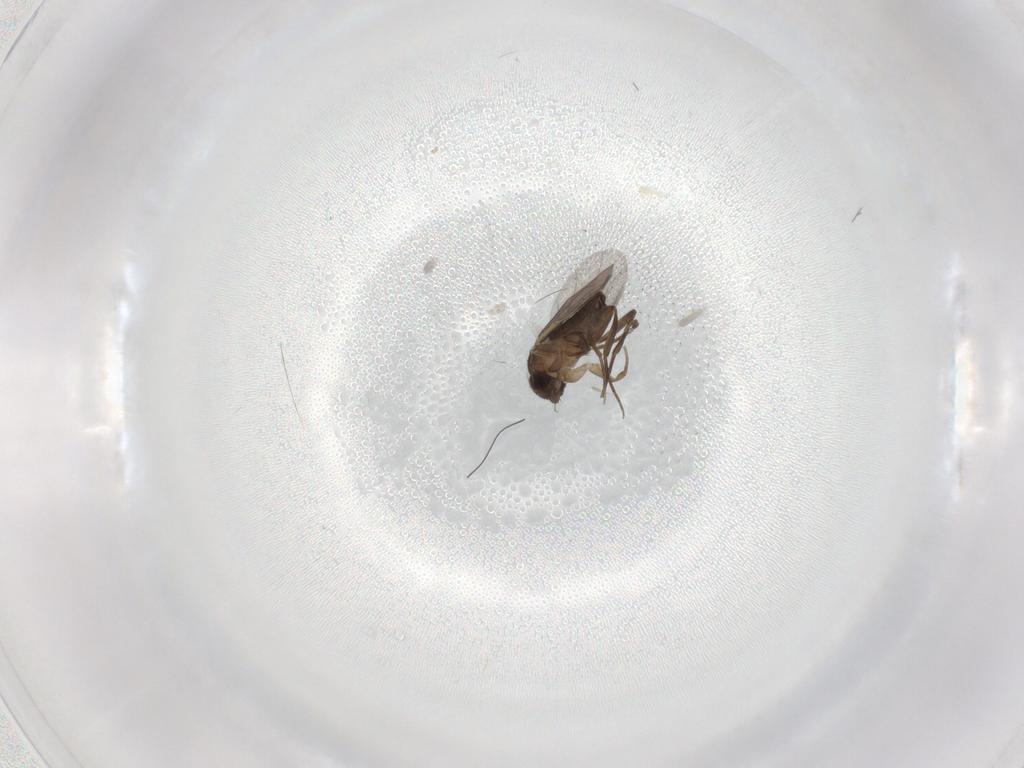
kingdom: Animalia
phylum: Arthropoda
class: Insecta
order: Diptera
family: Phoridae
